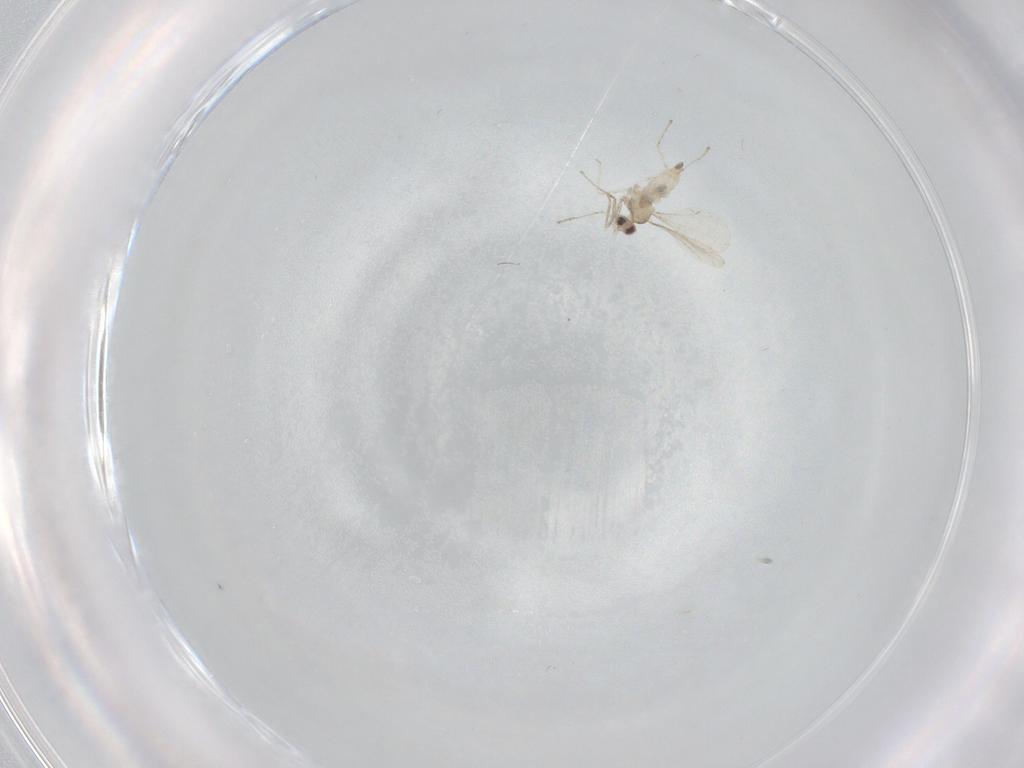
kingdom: Animalia
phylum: Arthropoda
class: Insecta
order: Diptera
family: Cecidomyiidae
